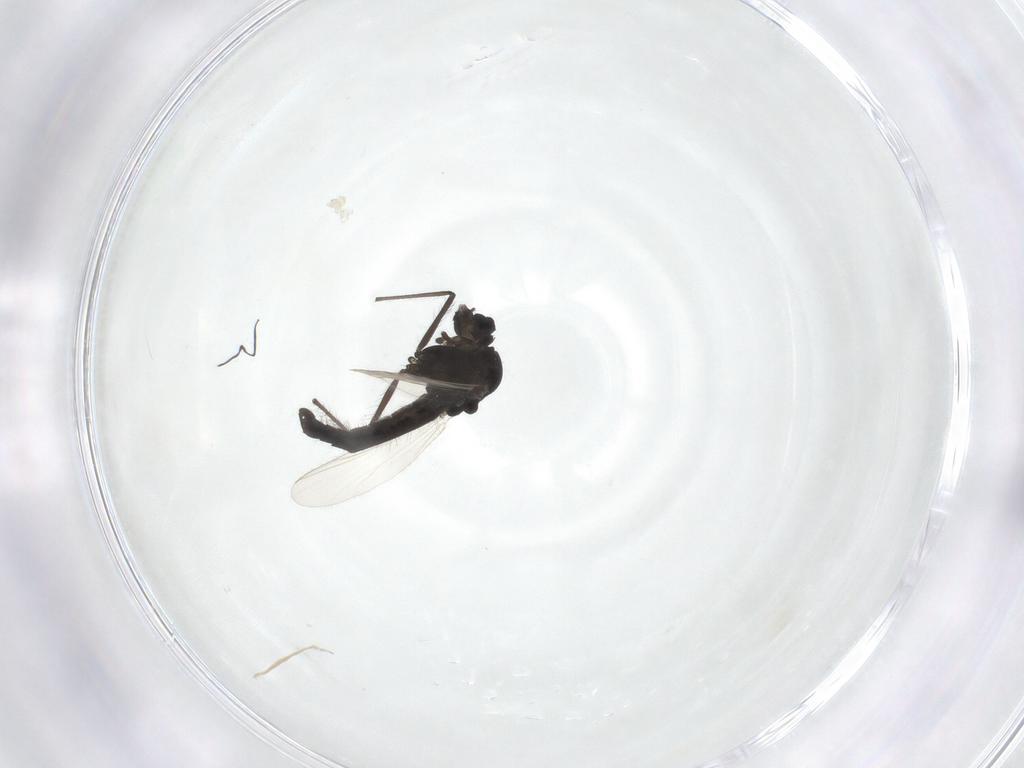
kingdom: Animalia
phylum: Arthropoda
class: Insecta
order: Diptera
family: Chironomidae
